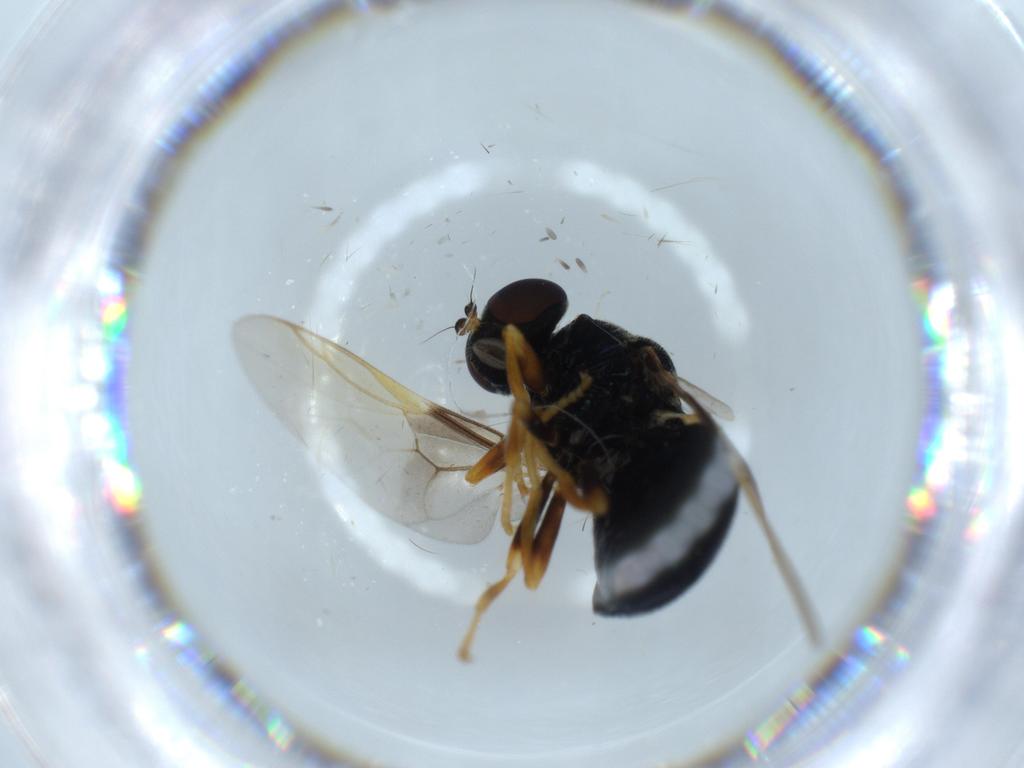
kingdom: Animalia
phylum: Arthropoda
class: Insecta
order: Diptera
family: Stratiomyidae
